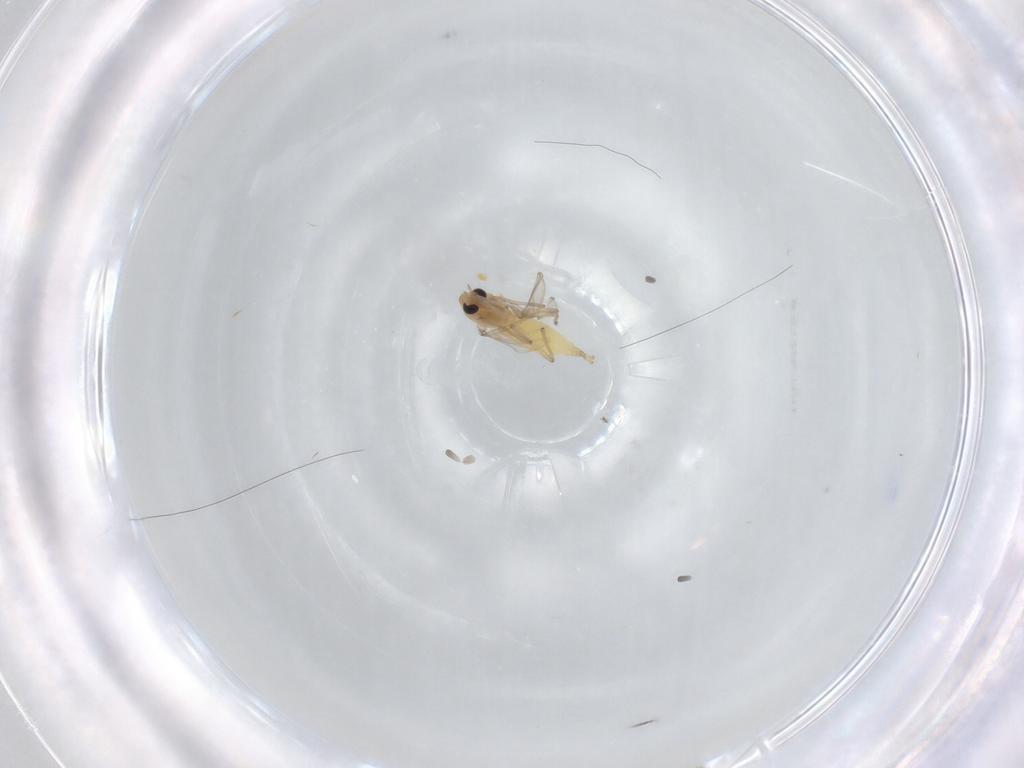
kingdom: Animalia
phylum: Arthropoda
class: Insecta
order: Diptera
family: Chironomidae
